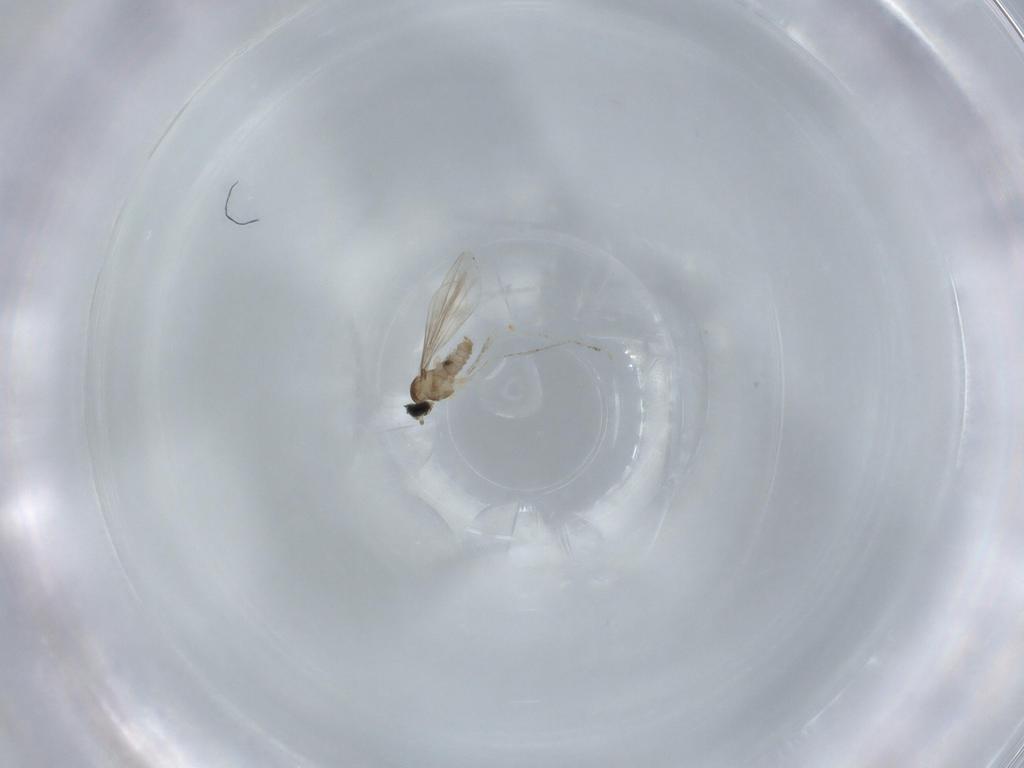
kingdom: Animalia
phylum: Arthropoda
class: Insecta
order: Diptera
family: Cecidomyiidae
